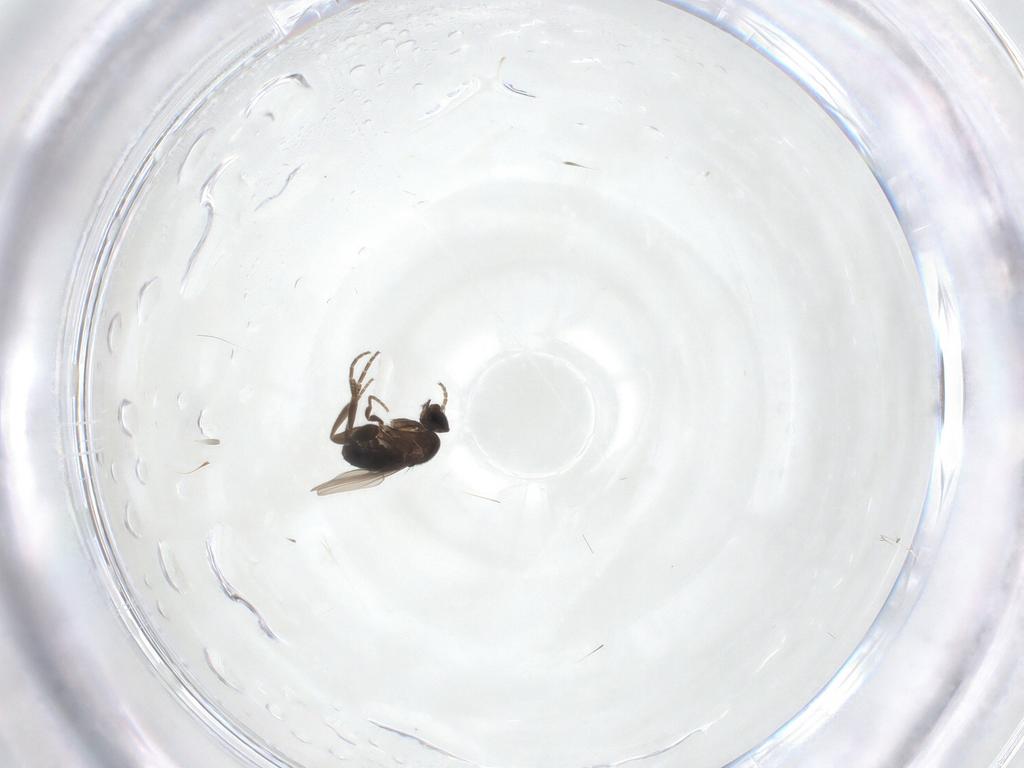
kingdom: Animalia
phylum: Arthropoda
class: Insecta
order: Diptera
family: Phoridae
